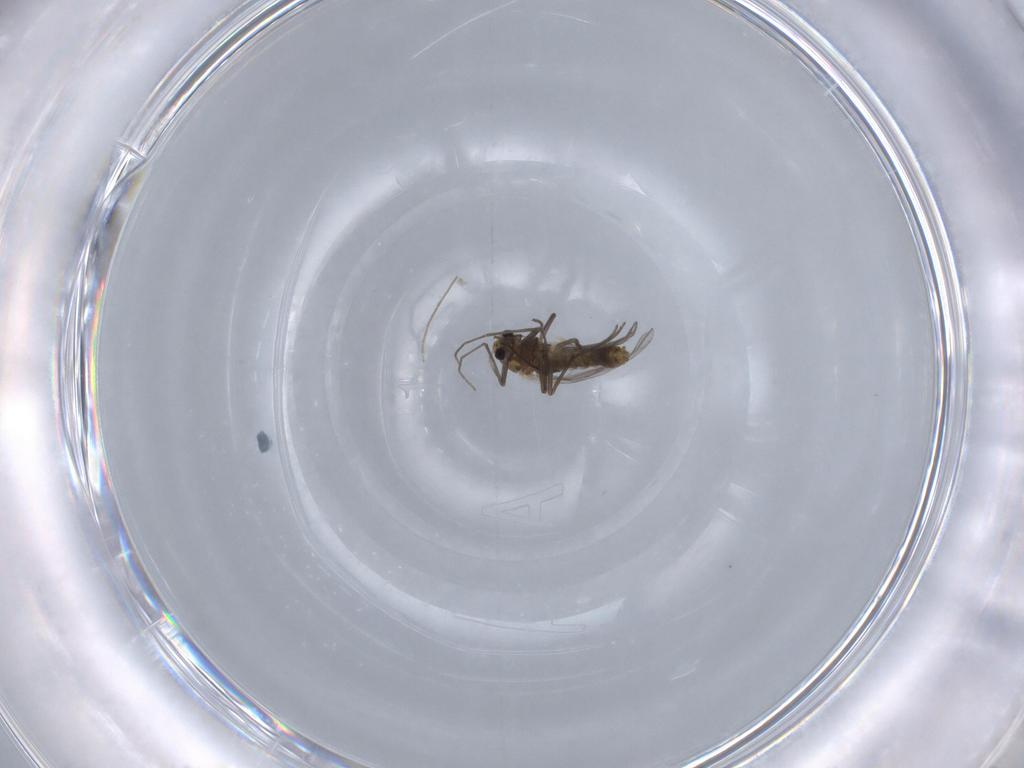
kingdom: Animalia
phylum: Arthropoda
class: Insecta
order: Diptera
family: Chironomidae
